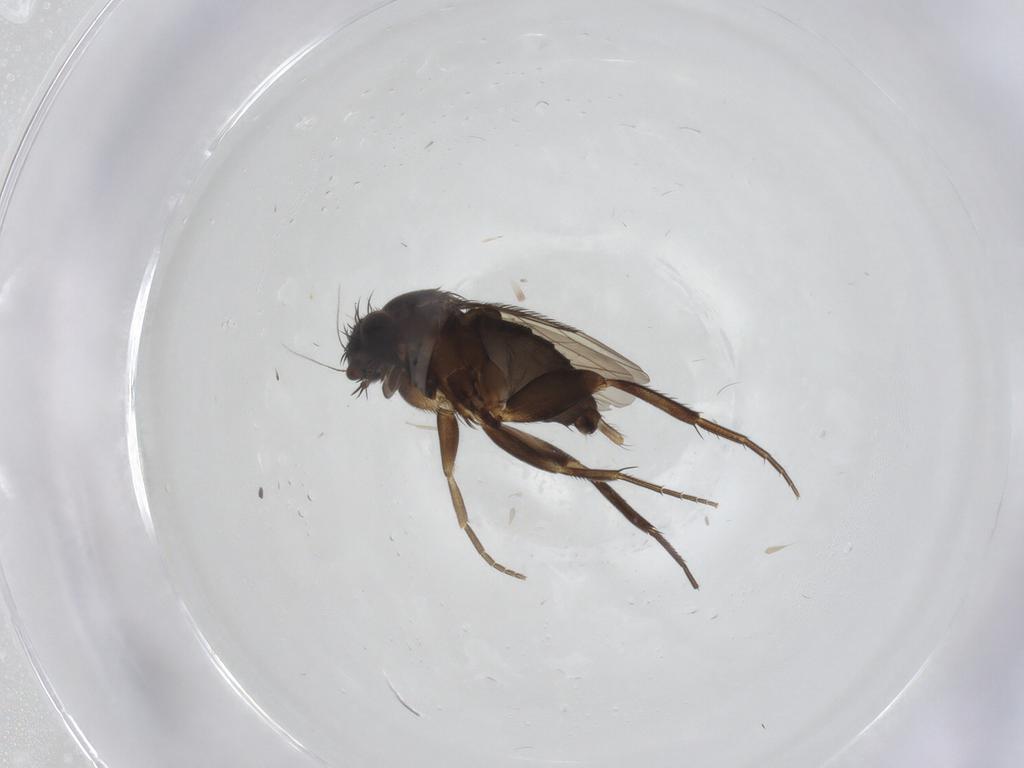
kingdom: Animalia
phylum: Arthropoda
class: Insecta
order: Diptera
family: Phoridae
